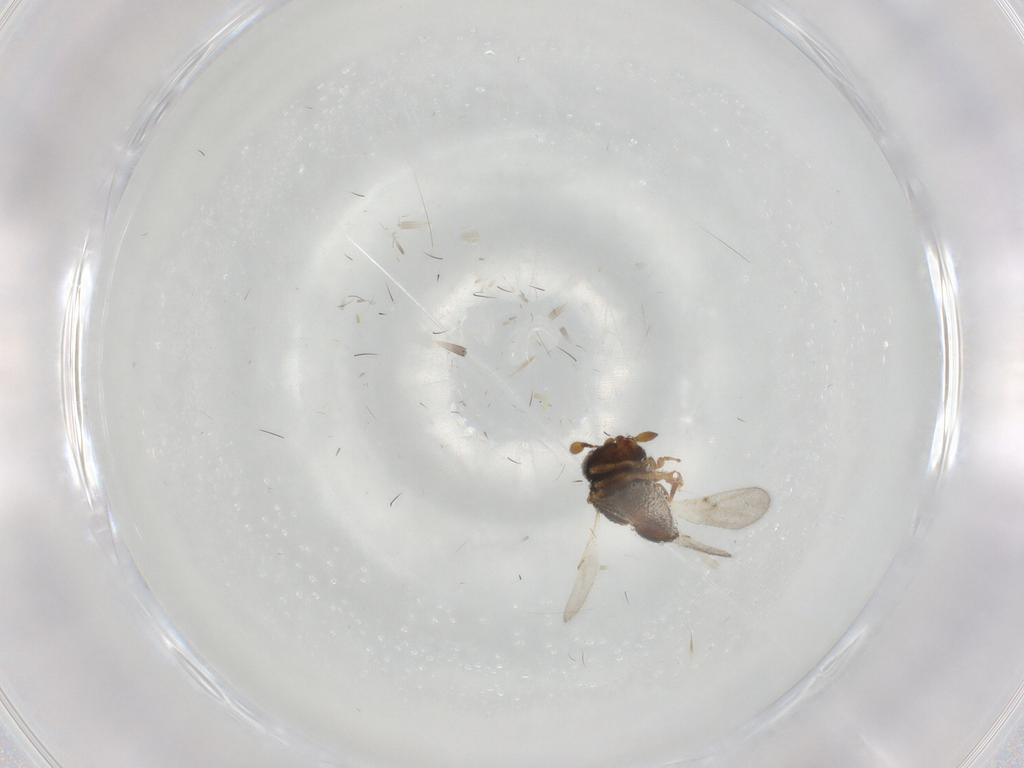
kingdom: Animalia
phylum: Arthropoda
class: Insecta
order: Hymenoptera
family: Scelionidae
